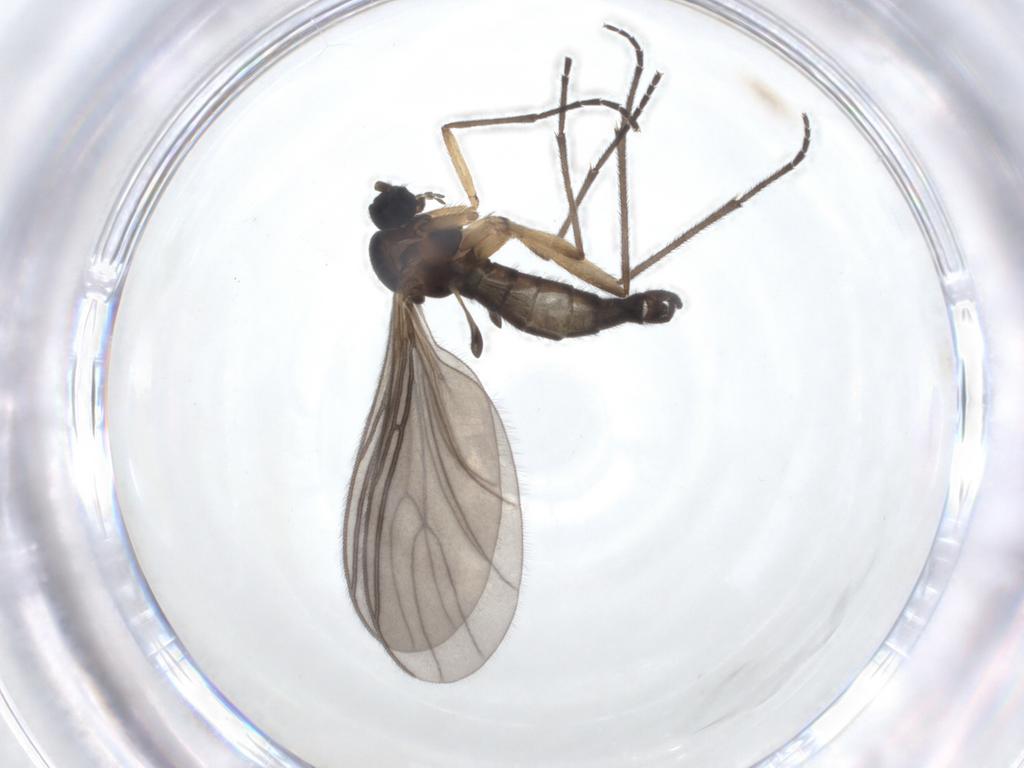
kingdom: Animalia
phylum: Arthropoda
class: Insecta
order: Diptera
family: Sciaridae
